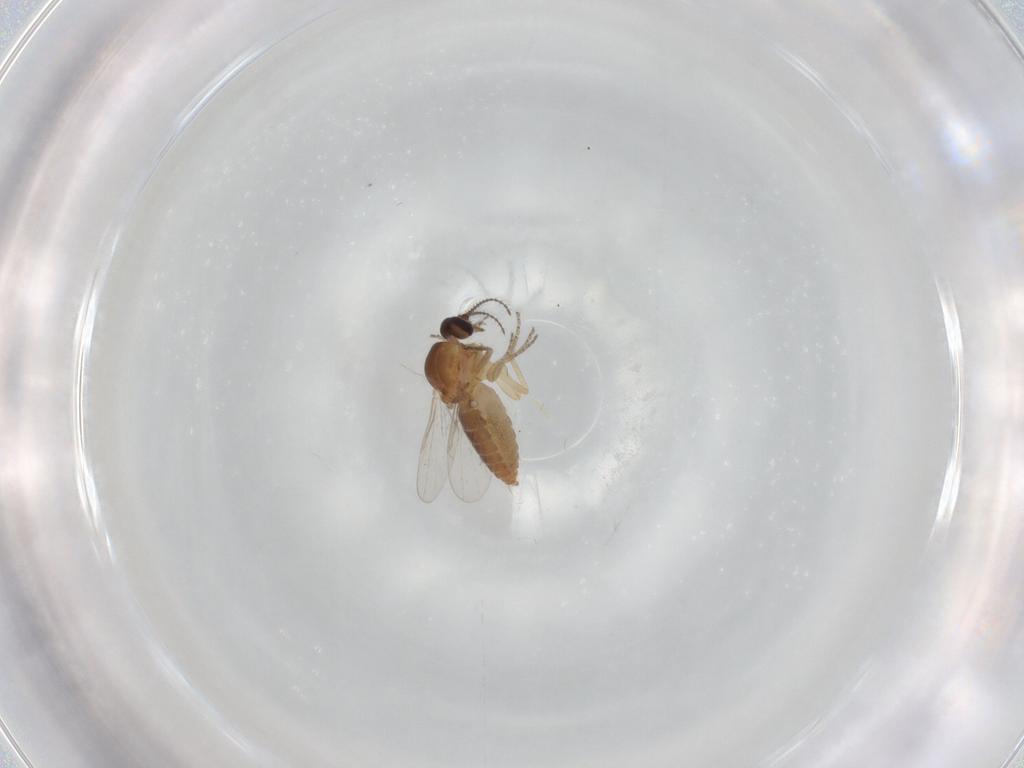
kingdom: Animalia
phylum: Arthropoda
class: Insecta
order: Diptera
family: Ceratopogonidae
